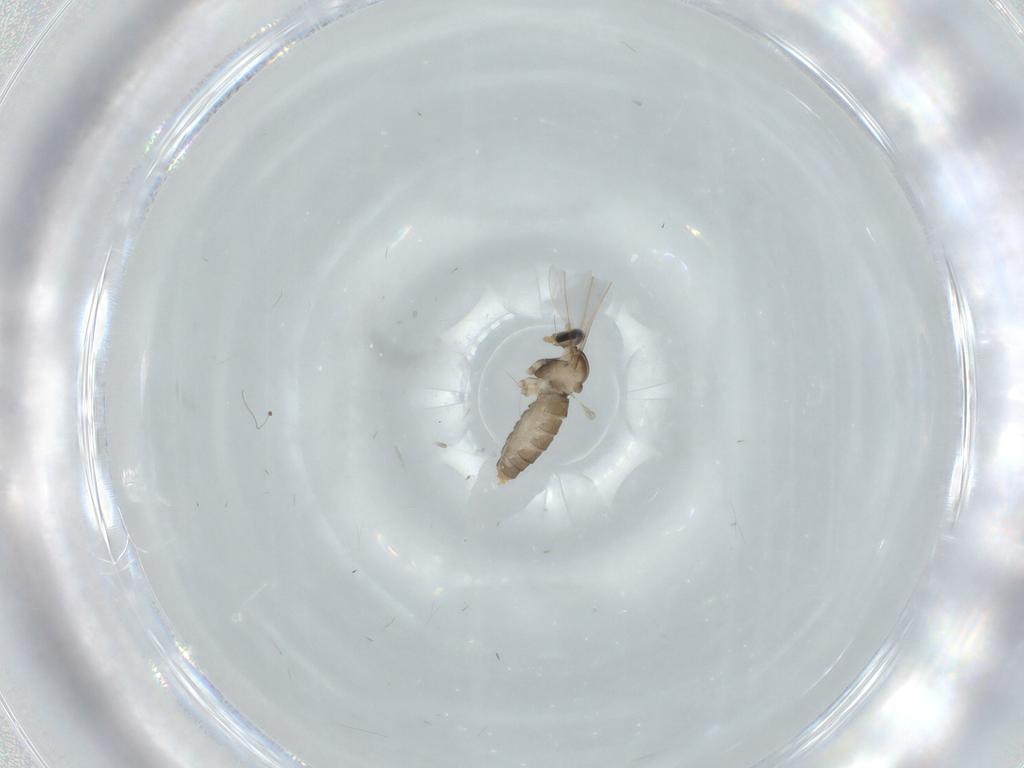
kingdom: Animalia
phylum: Arthropoda
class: Insecta
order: Diptera
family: Cecidomyiidae
